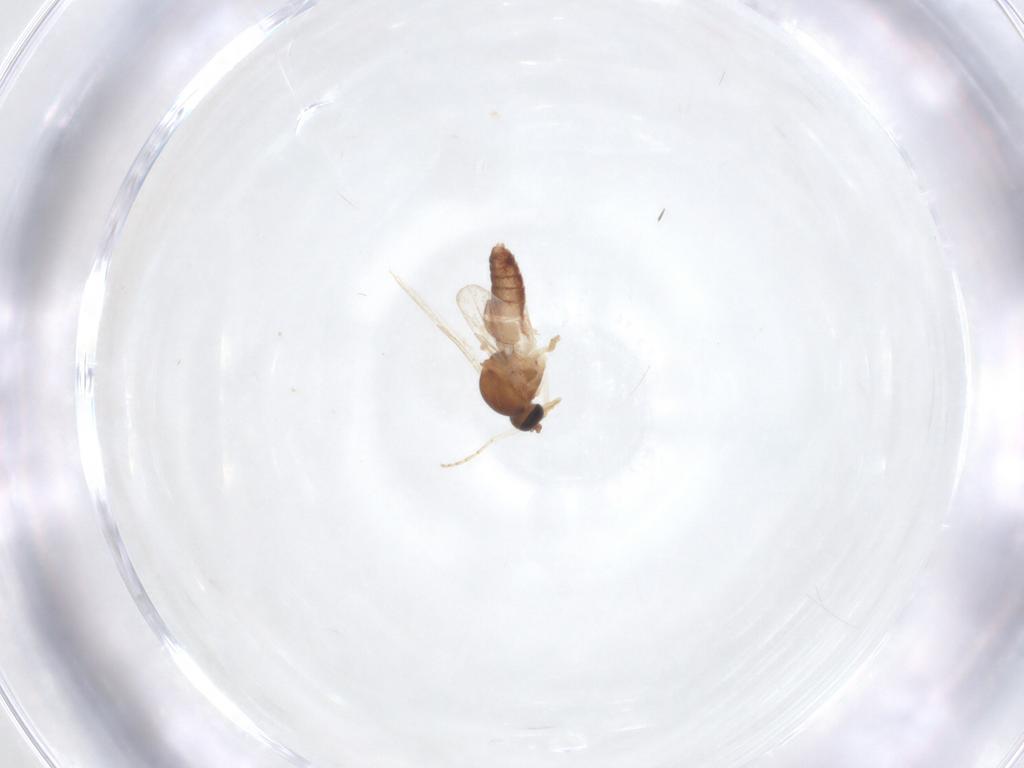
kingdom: Animalia
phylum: Arthropoda
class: Insecta
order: Diptera
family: Ceratopogonidae
